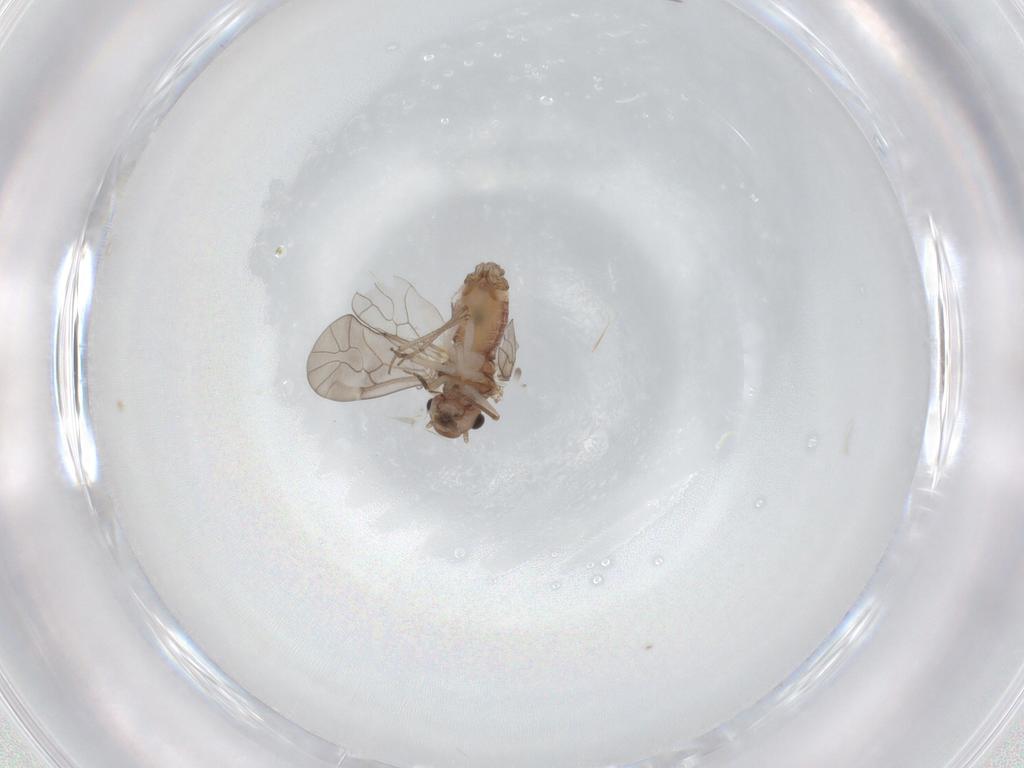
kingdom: Animalia
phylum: Arthropoda
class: Insecta
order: Psocodea
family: Peripsocidae
